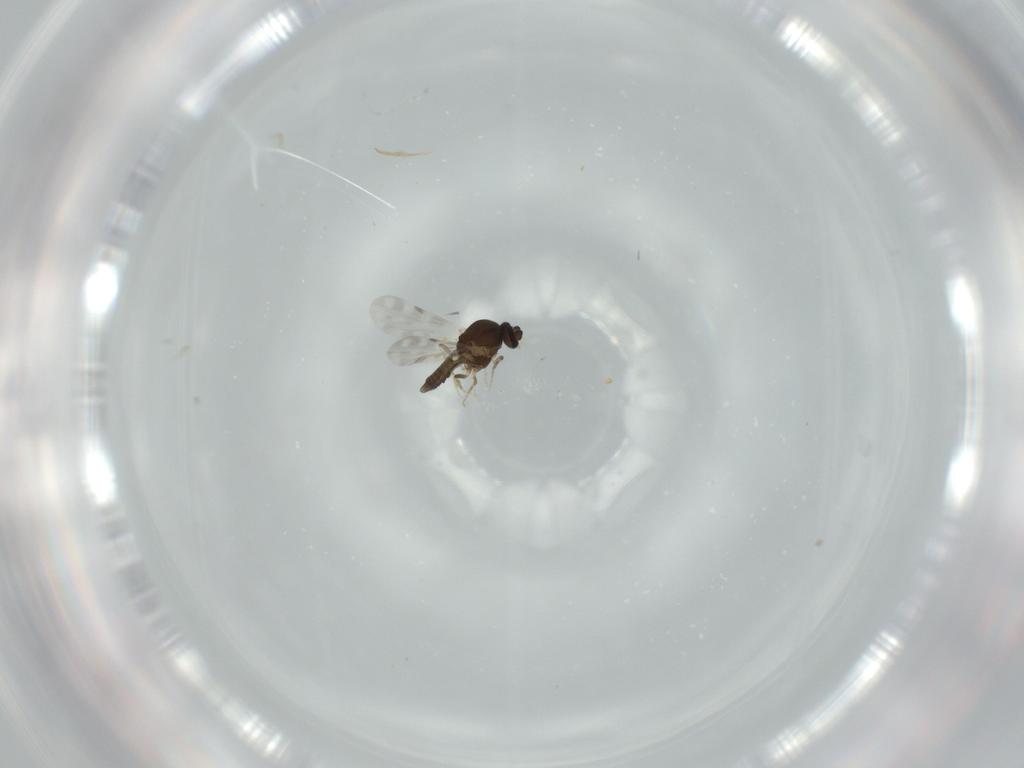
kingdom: Animalia
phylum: Arthropoda
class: Insecta
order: Diptera
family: Ceratopogonidae
